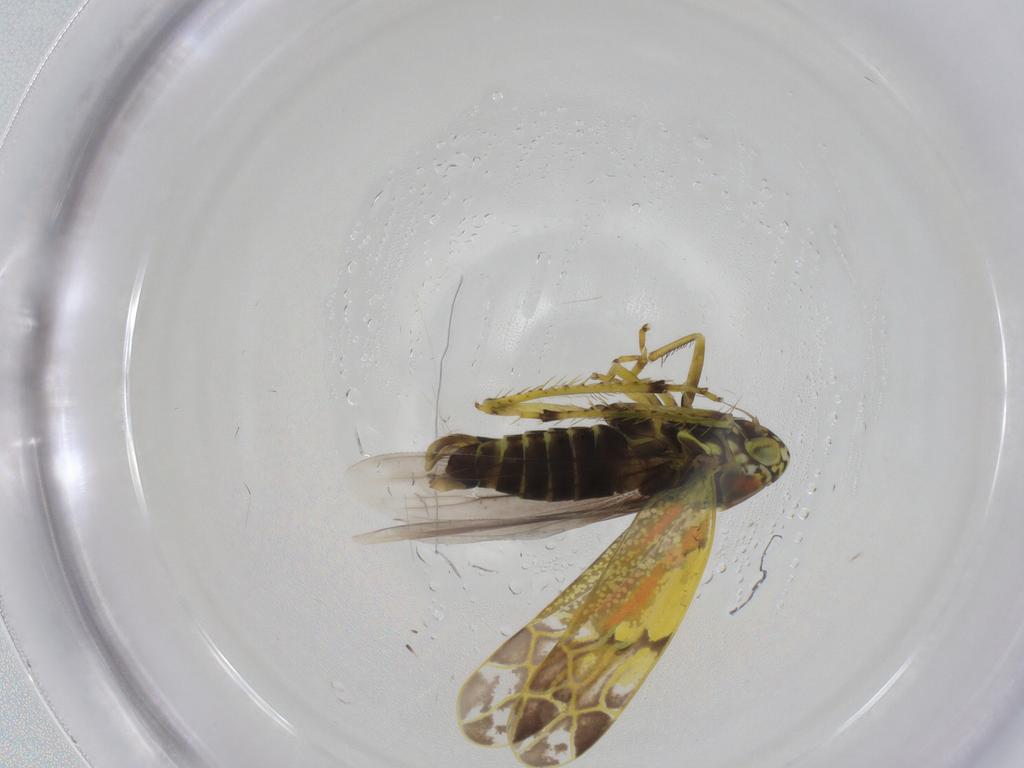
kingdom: Animalia
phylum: Arthropoda
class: Insecta
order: Hemiptera
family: Cicadellidae
